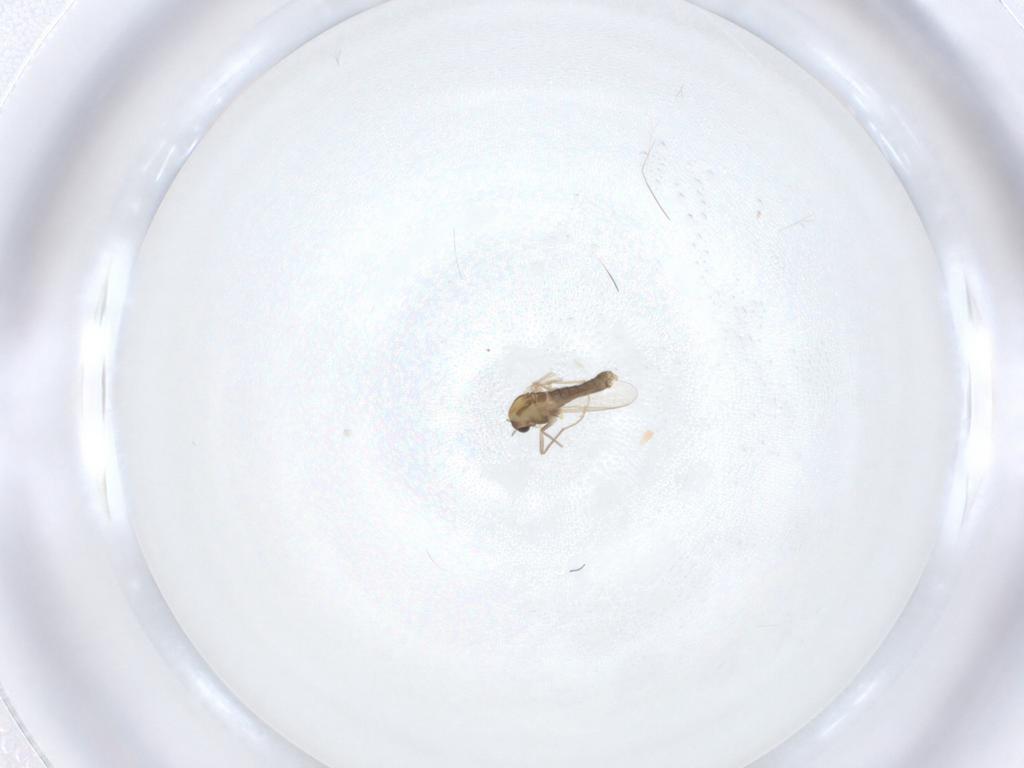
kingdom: Animalia
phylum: Arthropoda
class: Insecta
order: Diptera
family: Chironomidae
